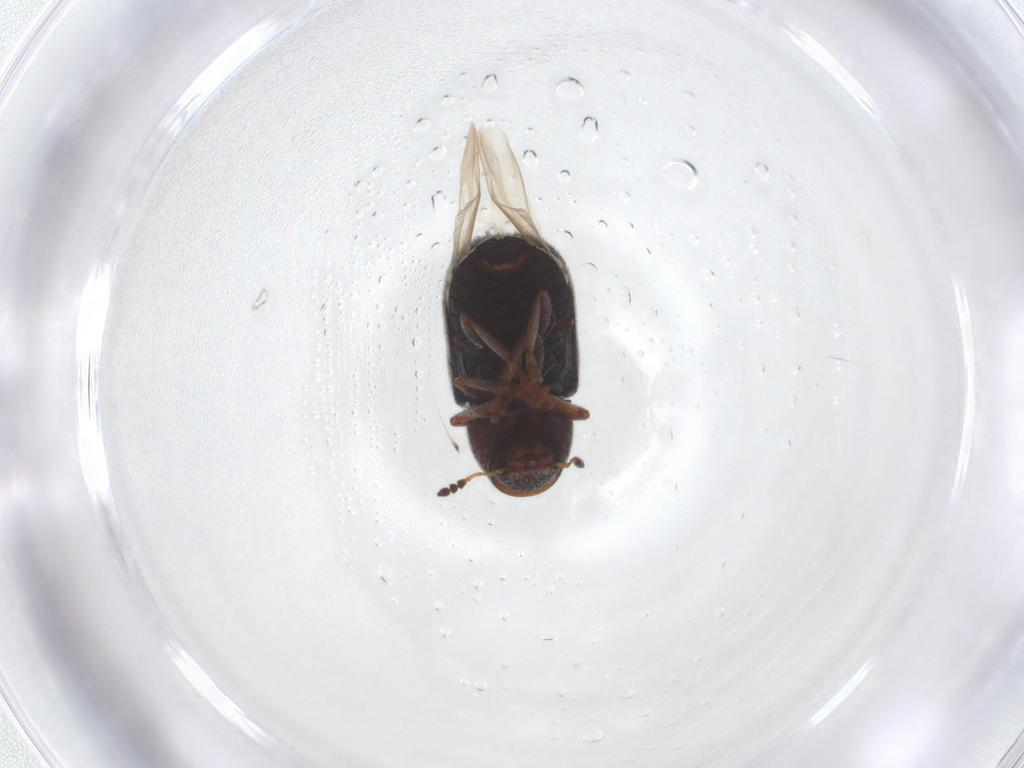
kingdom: Animalia
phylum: Arthropoda
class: Insecta
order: Coleoptera
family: Anthribidae
